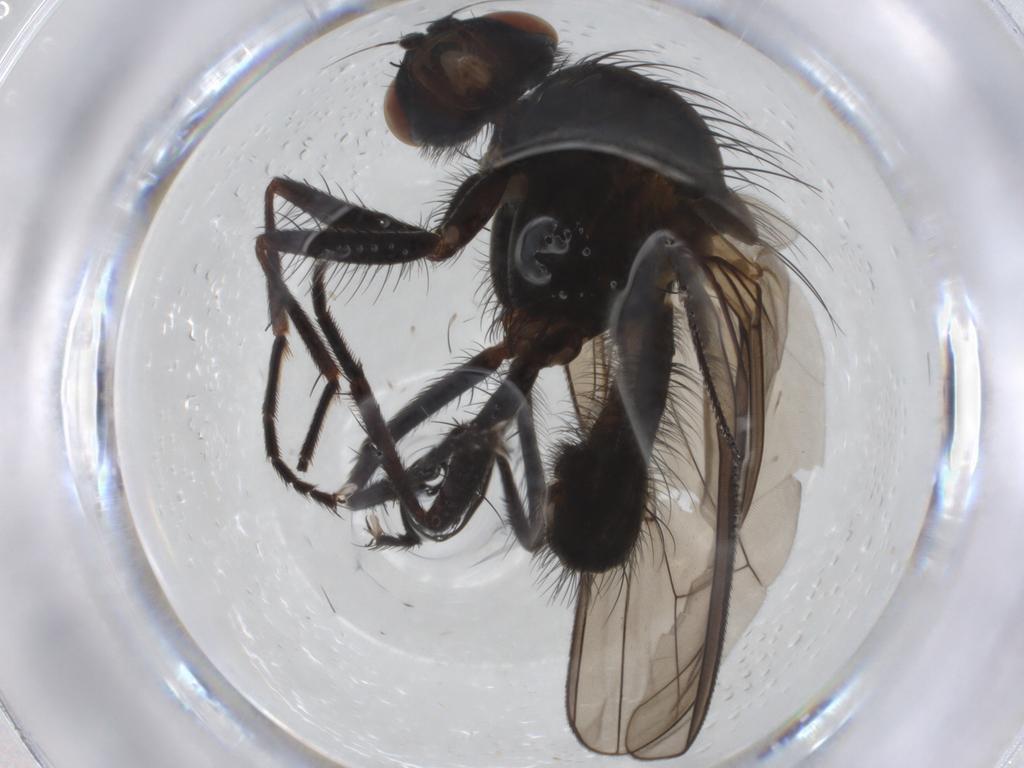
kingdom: Animalia
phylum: Arthropoda
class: Insecta
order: Diptera
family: Anthomyiidae
